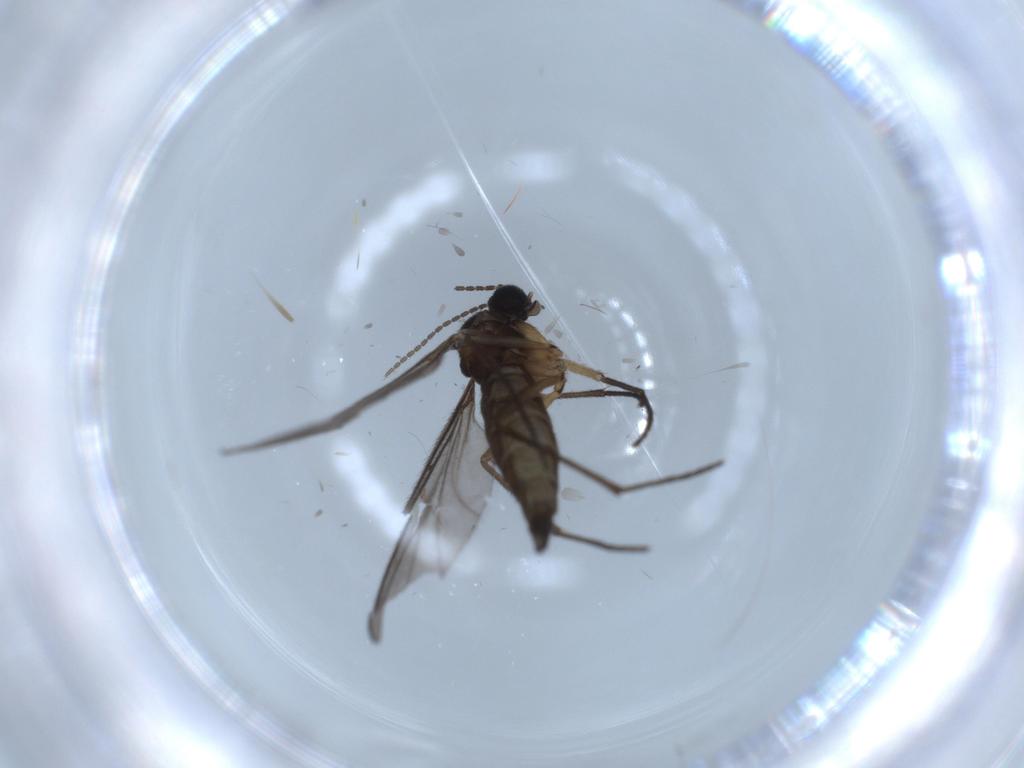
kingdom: Animalia
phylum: Arthropoda
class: Insecta
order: Diptera
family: Sciaridae
